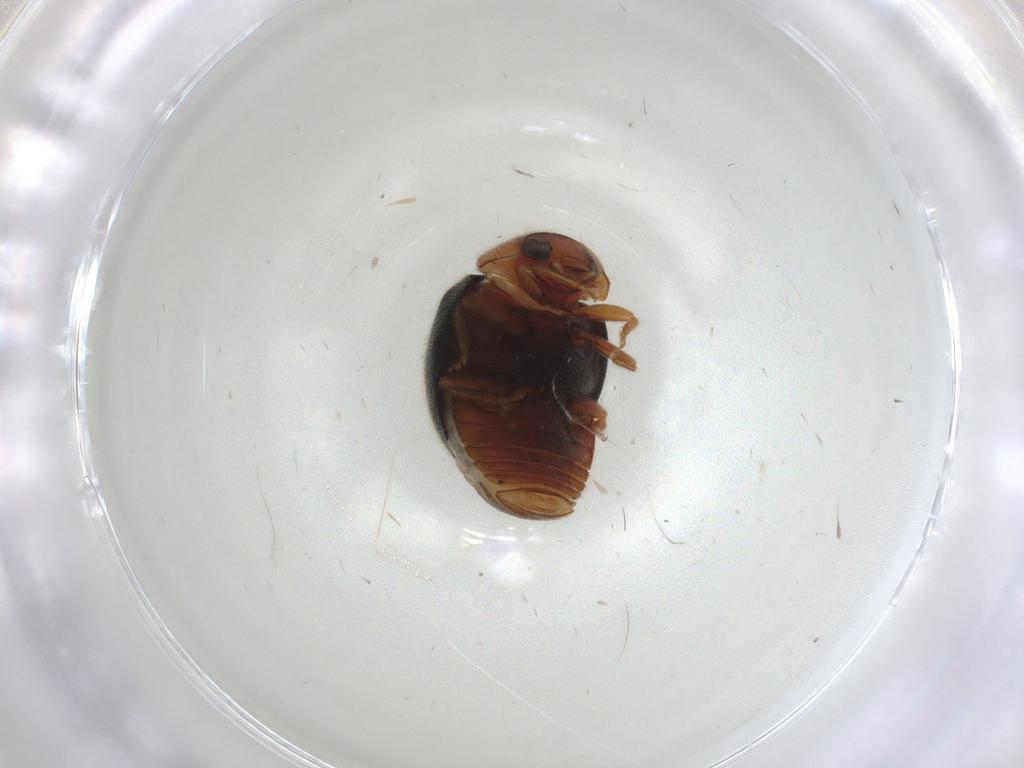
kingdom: Animalia
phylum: Arthropoda
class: Insecta
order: Coleoptera
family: Coccinellidae
